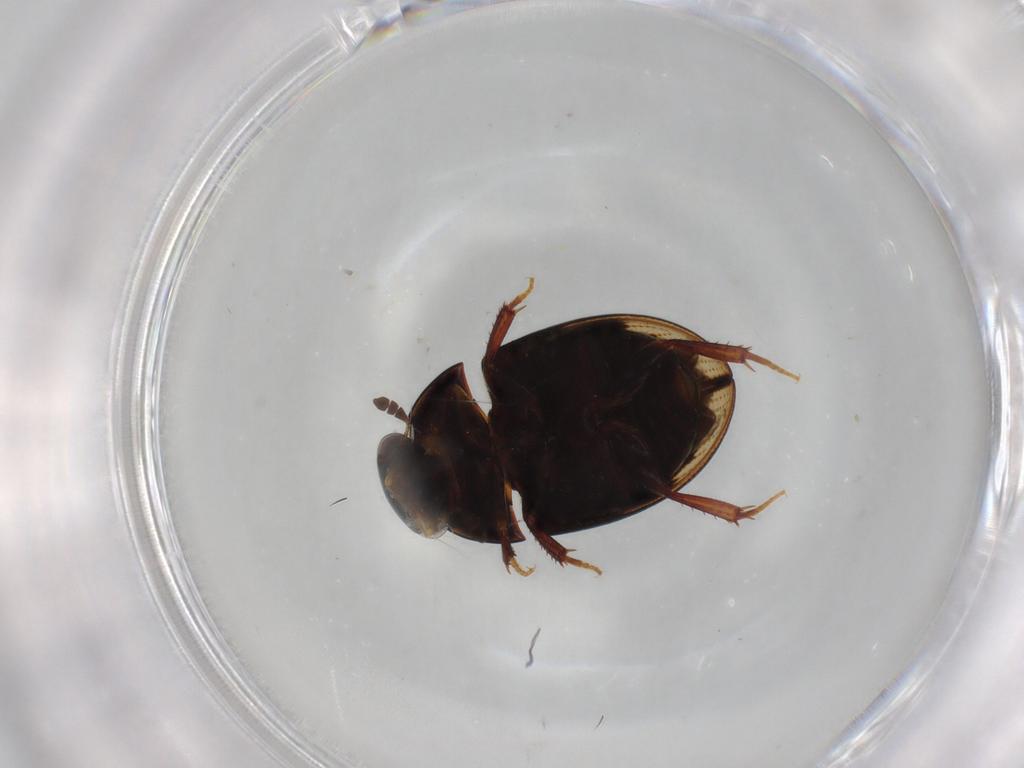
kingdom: Animalia
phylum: Arthropoda
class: Insecta
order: Coleoptera
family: Hydrophilidae
